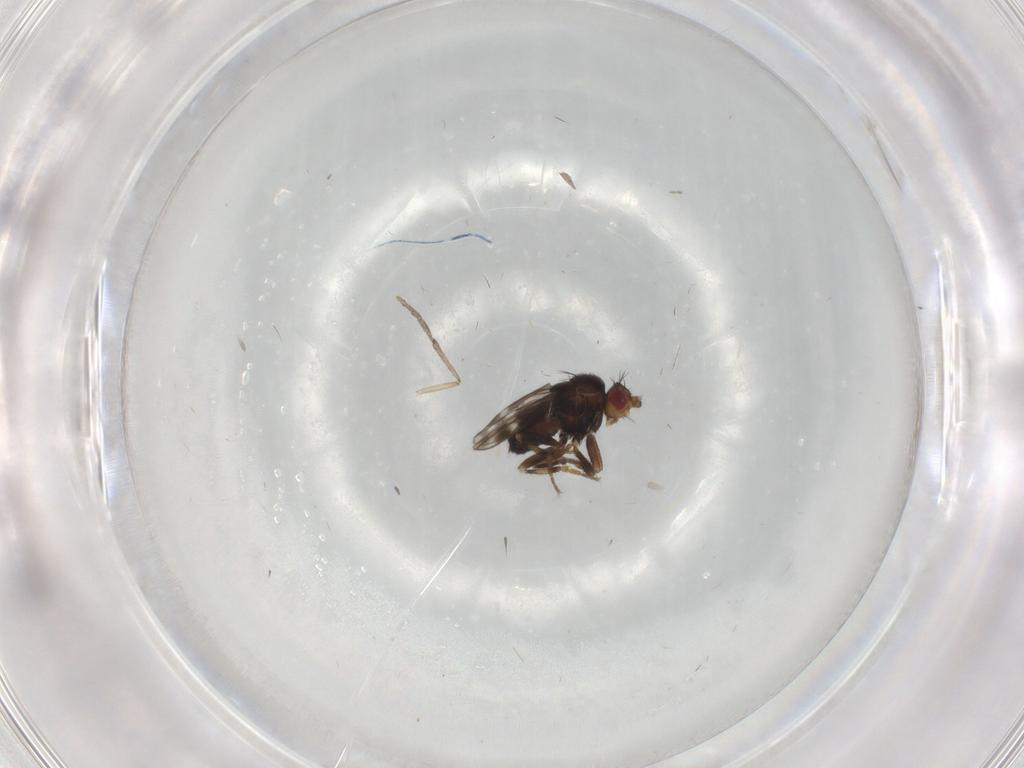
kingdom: Animalia
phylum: Arthropoda
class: Insecta
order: Diptera
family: Sphaeroceridae
